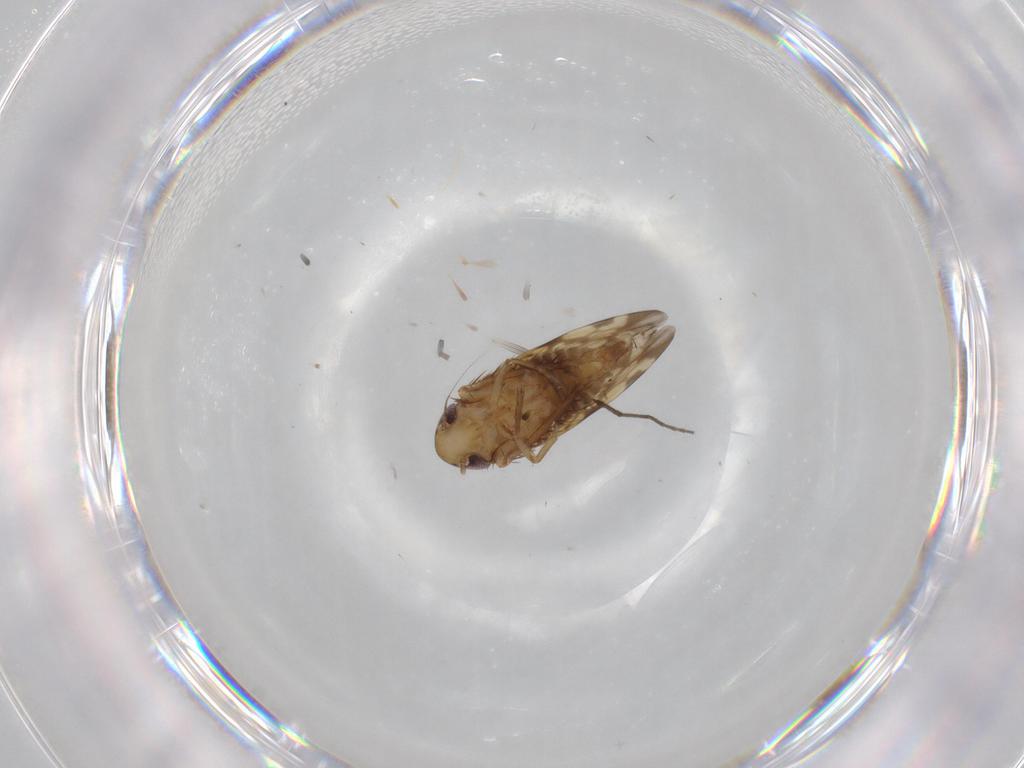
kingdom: Animalia
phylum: Arthropoda
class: Insecta
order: Hemiptera
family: Cicadellidae
